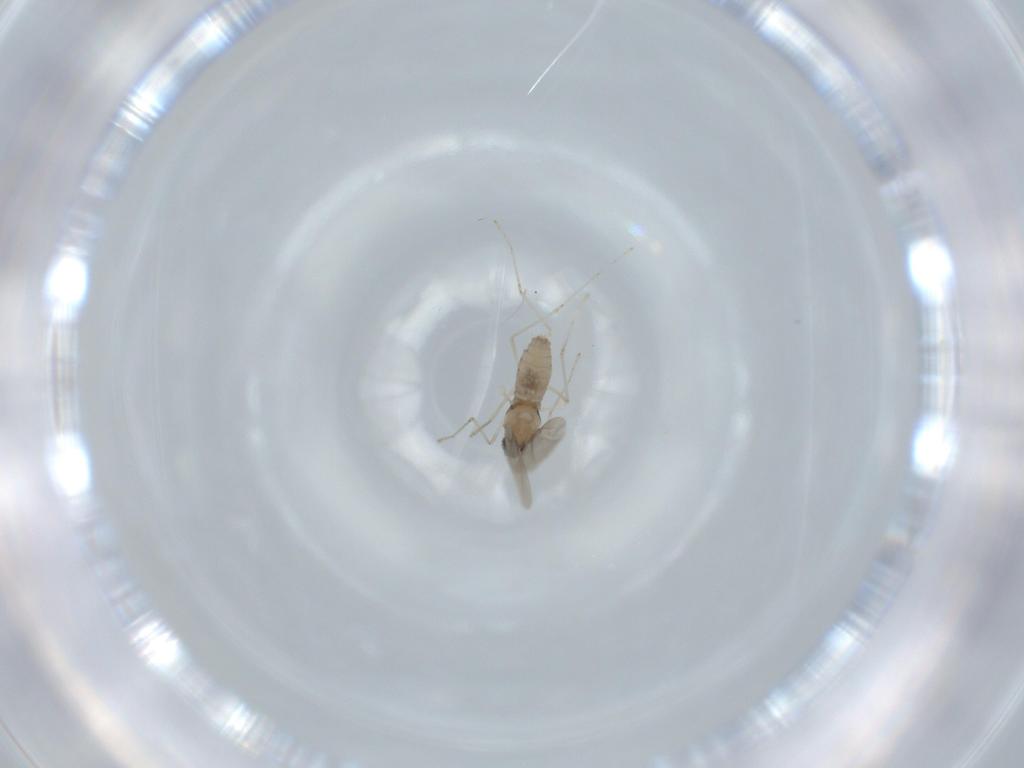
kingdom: Animalia
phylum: Arthropoda
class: Insecta
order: Diptera
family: Cecidomyiidae
